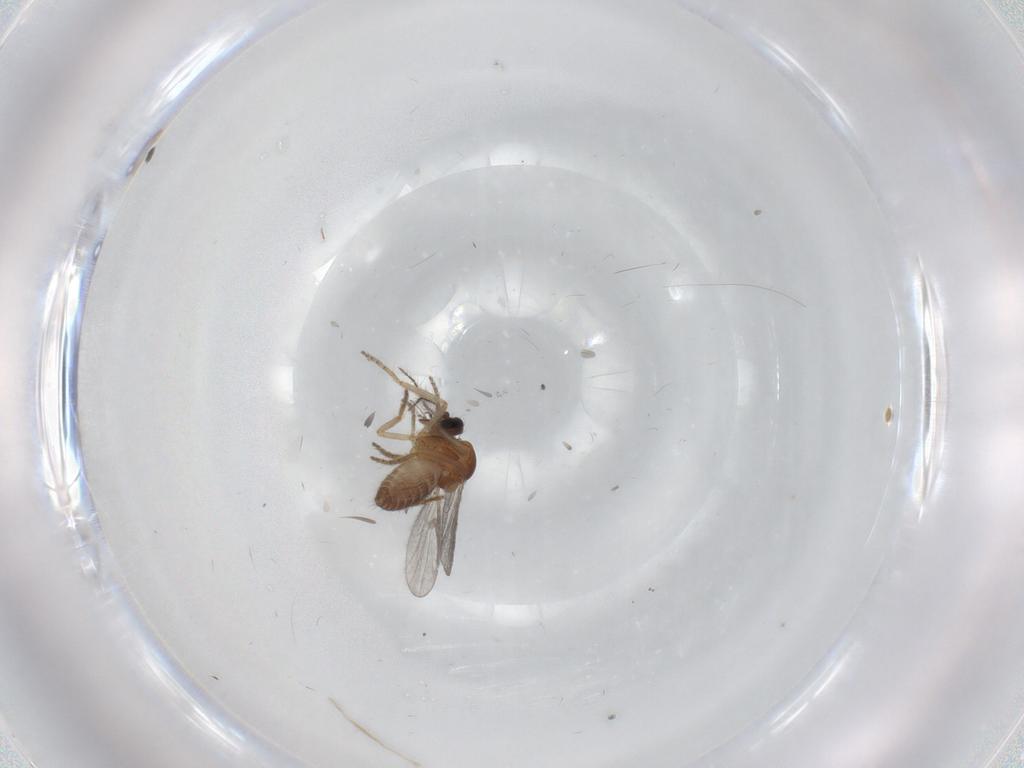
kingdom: Animalia
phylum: Arthropoda
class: Insecta
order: Diptera
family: Ceratopogonidae
